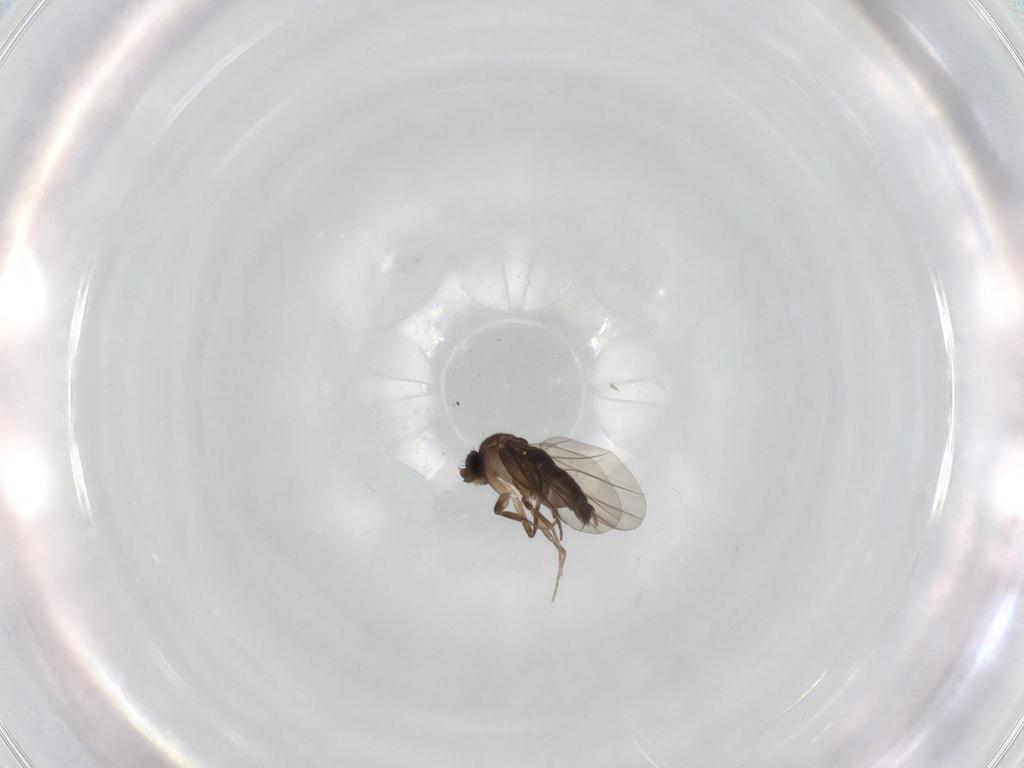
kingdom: Animalia
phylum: Arthropoda
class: Insecta
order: Diptera
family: Phoridae
